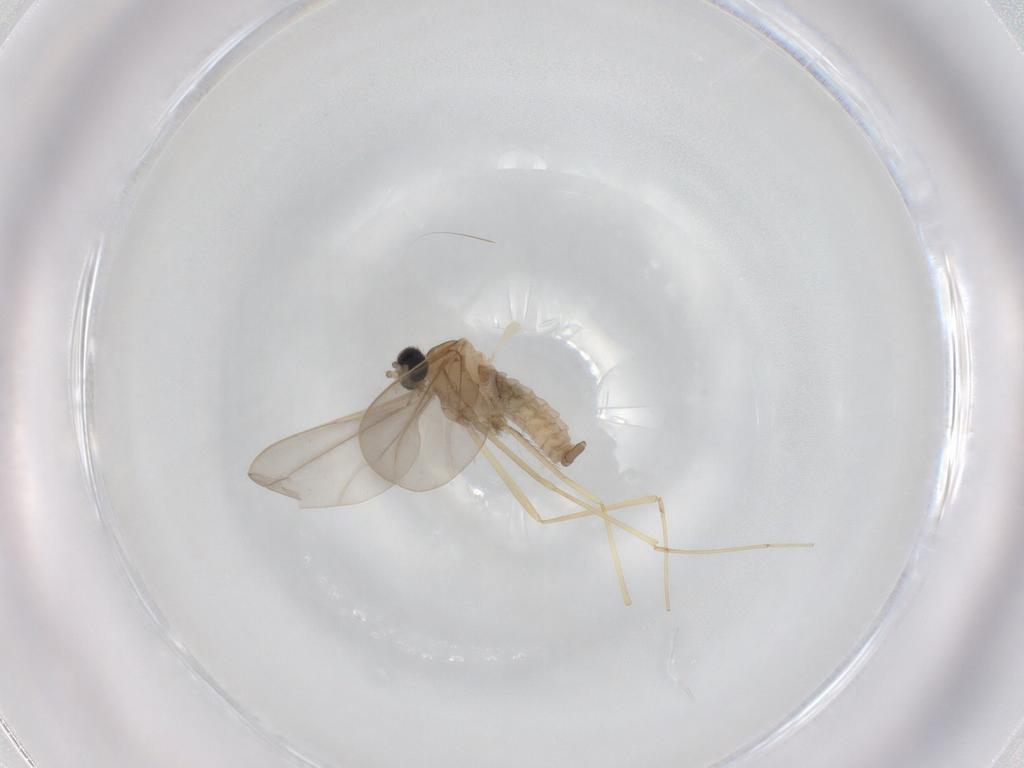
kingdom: Animalia
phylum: Arthropoda
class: Insecta
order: Diptera
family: Cecidomyiidae
